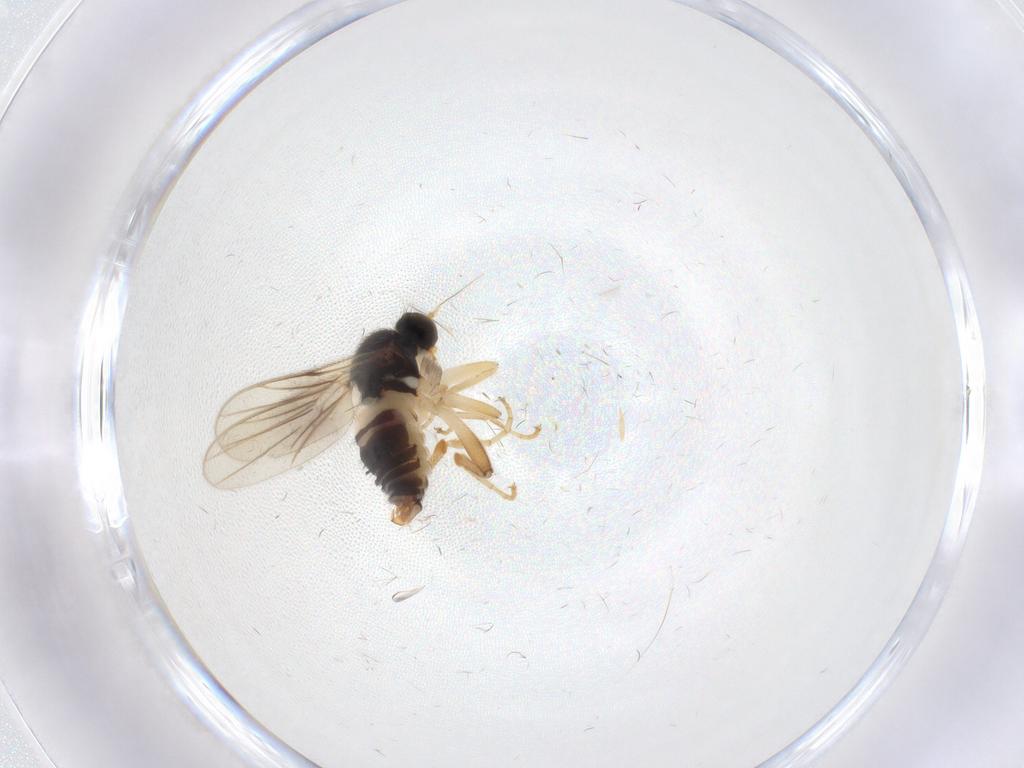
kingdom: Animalia
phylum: Arthropoda
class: Insecta
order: Diptera
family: Hybotidae
